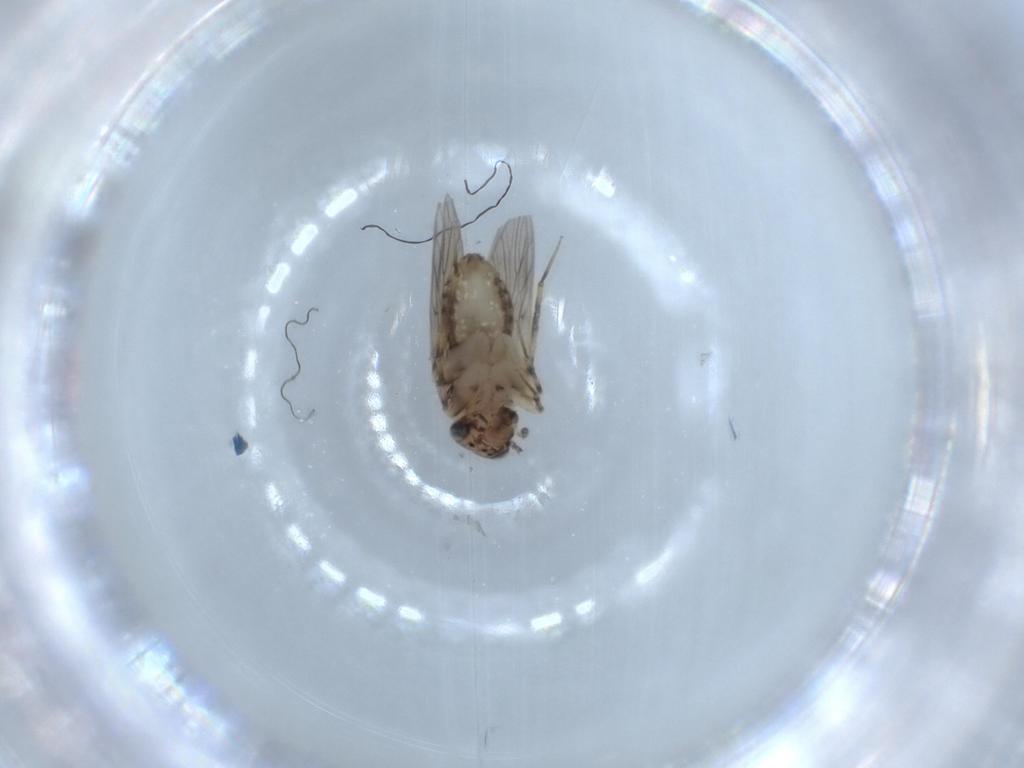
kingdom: Animalia
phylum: Arthropoda
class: Insecta
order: Psocodea
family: Lepidopsocidae
